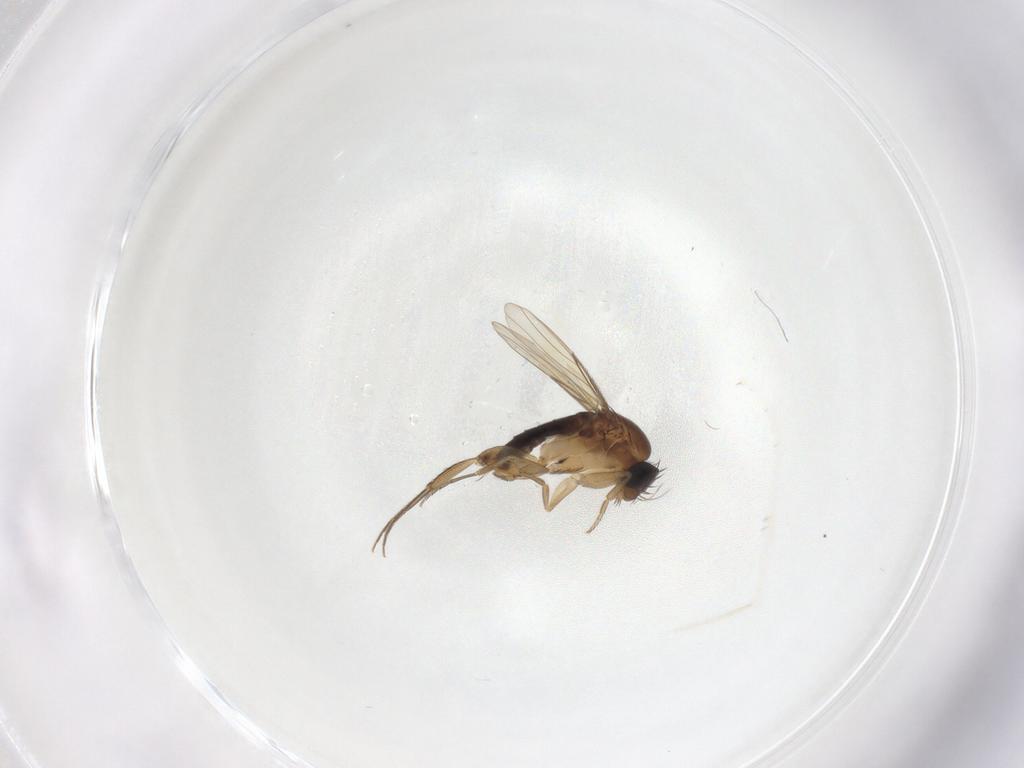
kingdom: Animalia
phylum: Arthropoda
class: Insecta
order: Diptera
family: Phoridae
